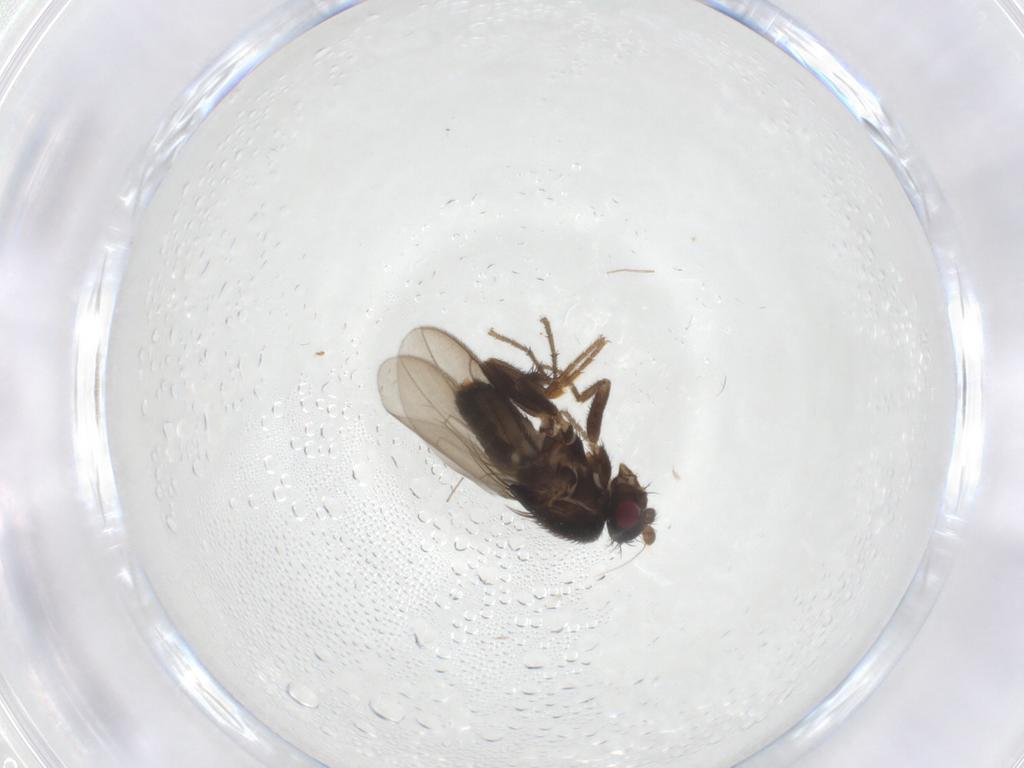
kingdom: Animalia
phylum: Arthropoda
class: Insecta
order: Diptera
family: Sphaeroceridae
